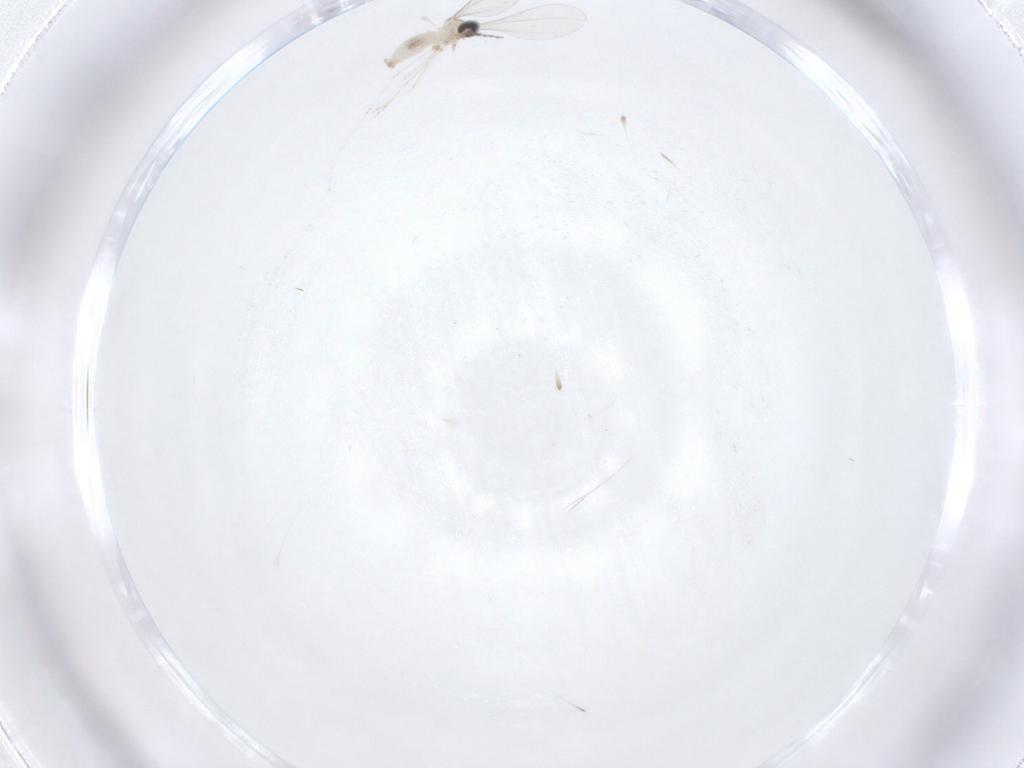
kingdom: Animalia
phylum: Arthropoda
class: Insecta
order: Diptera
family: Cecidomyiidae
